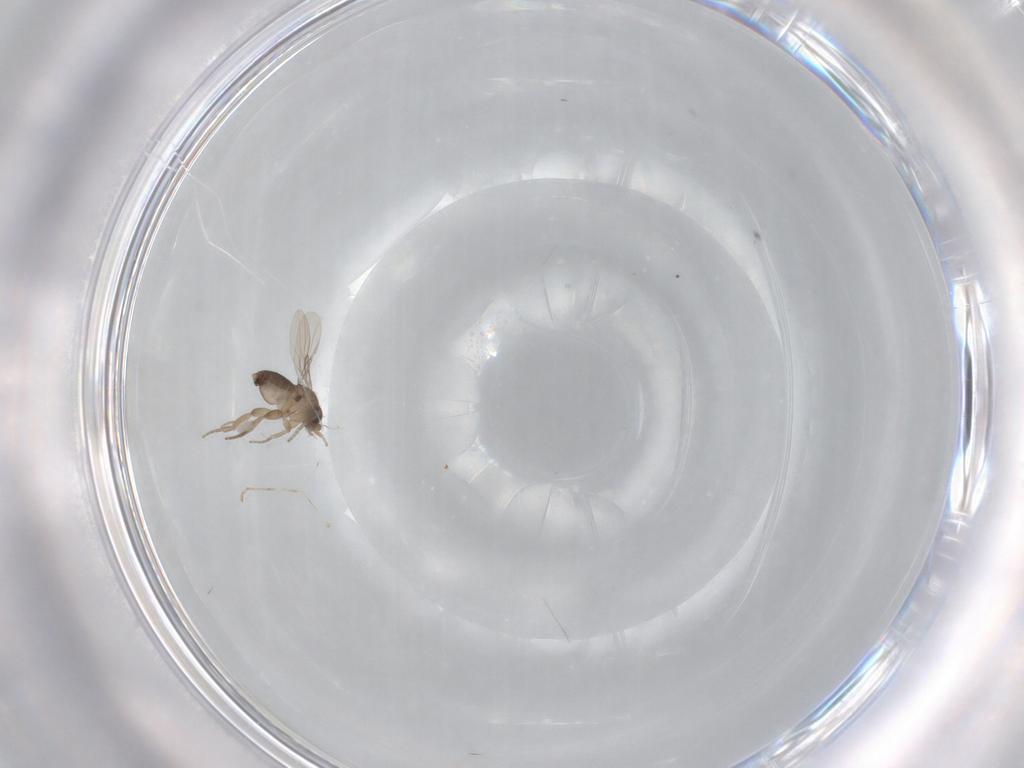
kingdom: Animalia
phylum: Arthropoda
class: Insecta
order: Diptera
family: Phoridae
